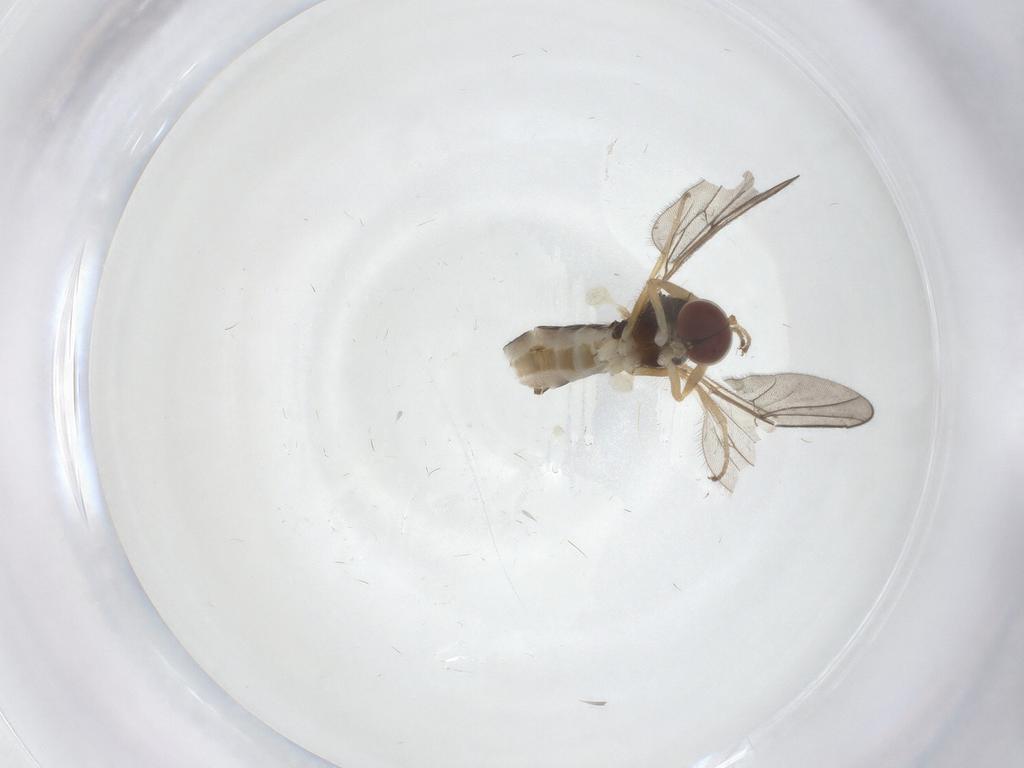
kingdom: Animalia
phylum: Arthropoda
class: Insecta
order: Diptera
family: Hybotidae
